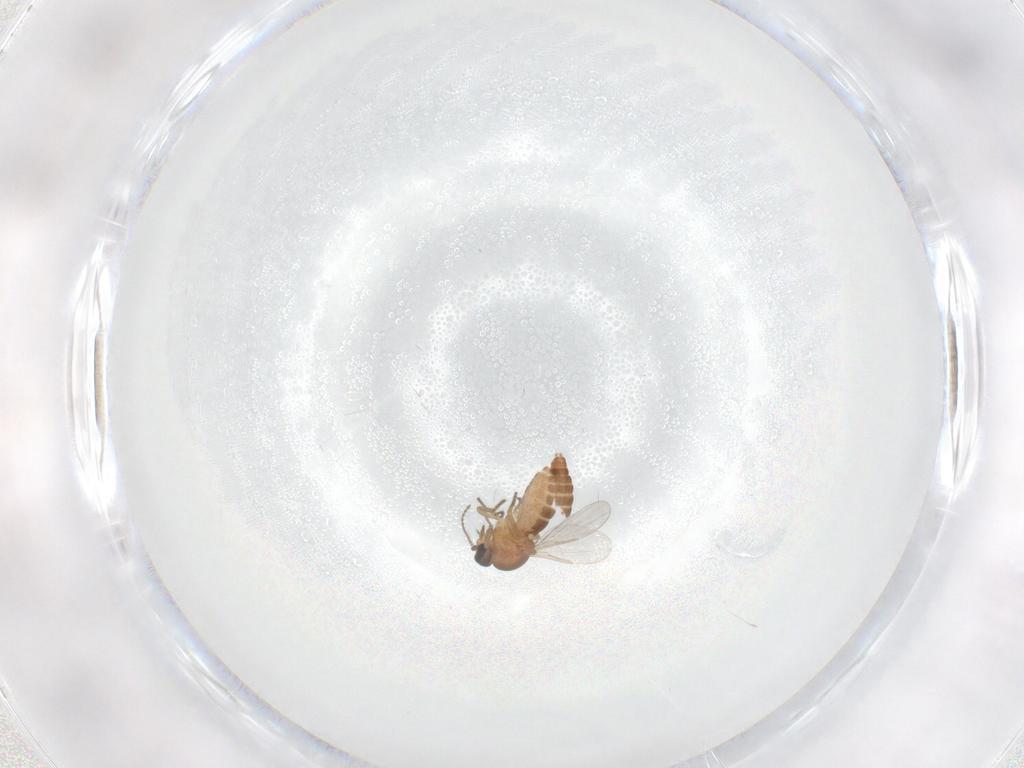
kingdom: Animalia
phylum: Arthropoda
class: Insecta
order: Diptera
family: Ceratopogonidae
